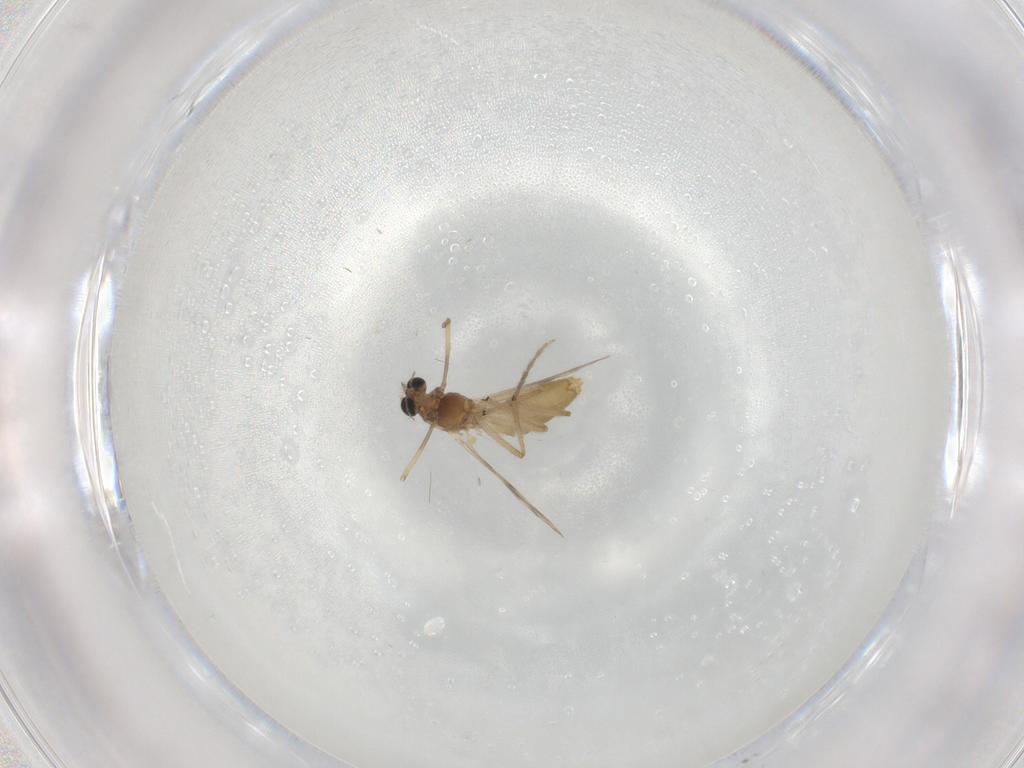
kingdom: Animalia
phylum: Arthropoda
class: Insecta
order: Diptera
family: Chironomidae
